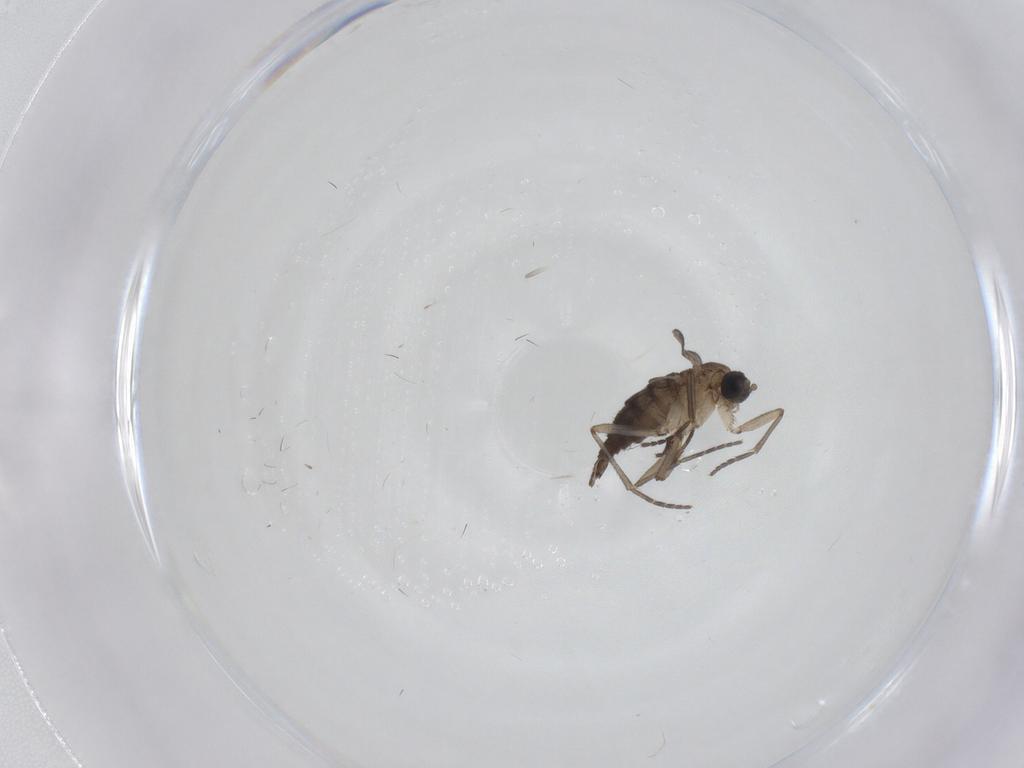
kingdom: Animalia
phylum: Arthropoda
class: Insecta
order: Diptera
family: Sciaridae
